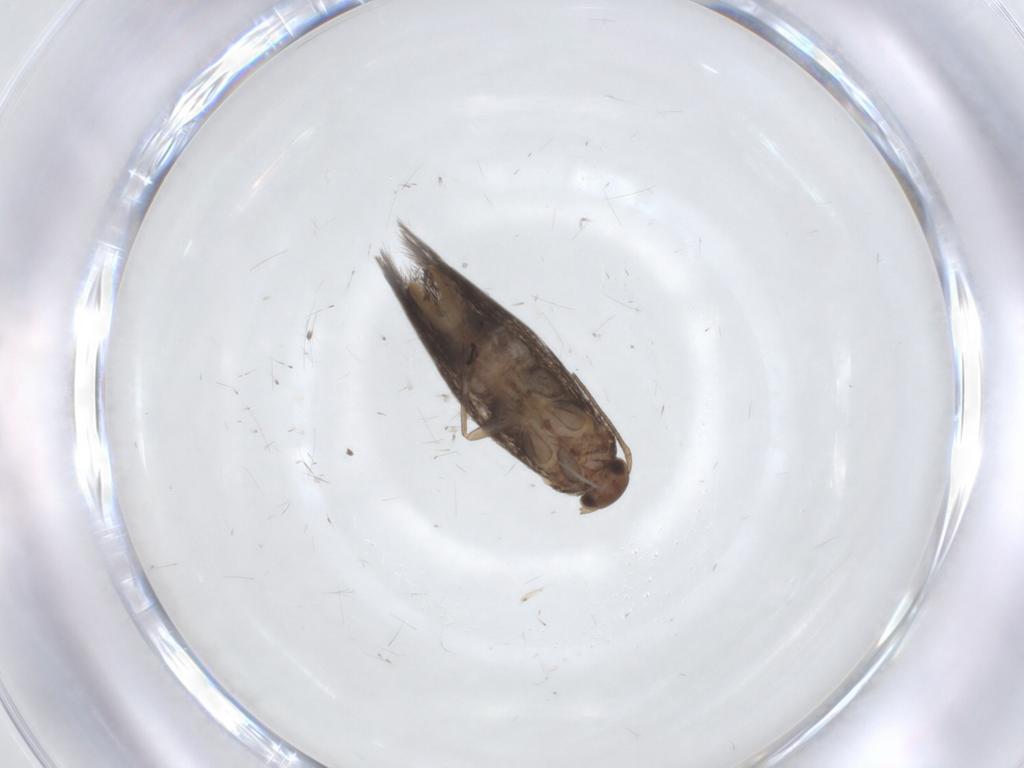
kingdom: Animalia
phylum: Arthropoda
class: Insecta
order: Lepidoptera
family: Elachistidae
